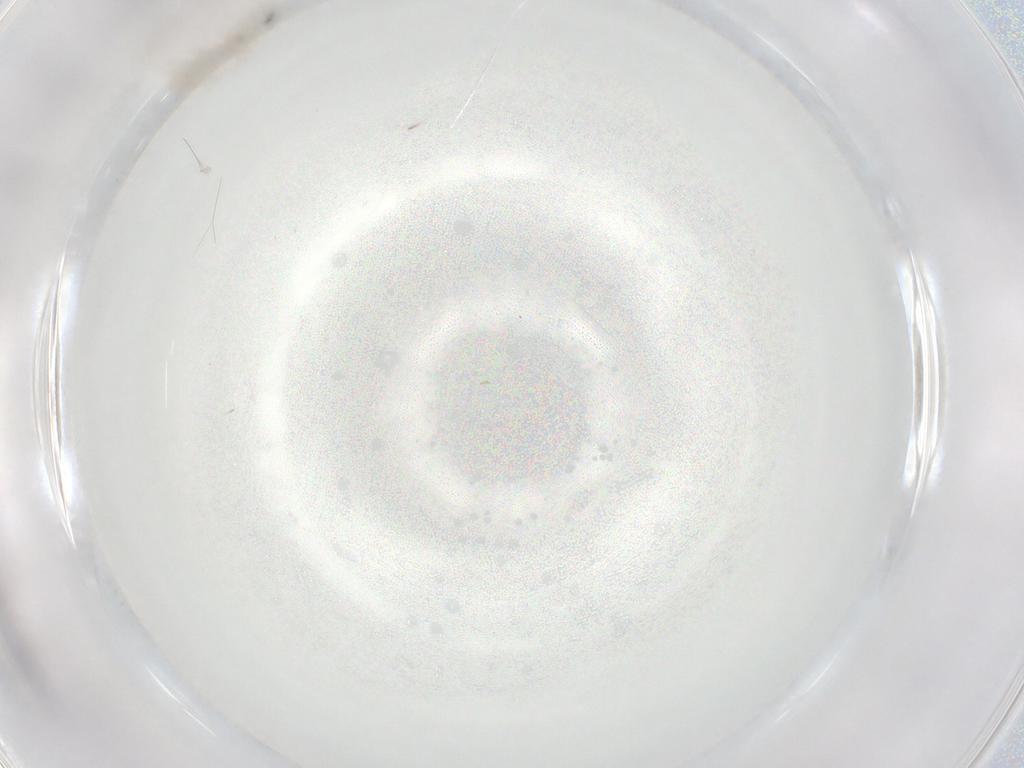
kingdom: Animalia
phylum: Arthropoda
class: Insecta
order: Diptera
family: Cecidomyiidae
